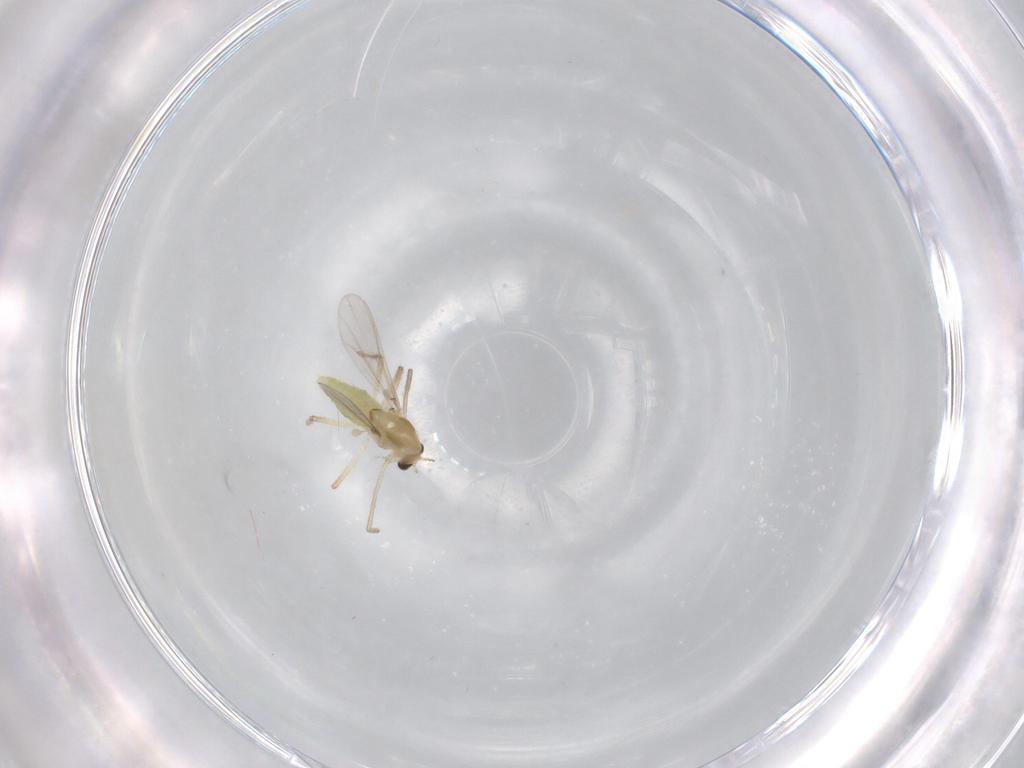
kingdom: Animalia
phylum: Arthropoda
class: Insecta
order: Diptera
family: Chironomidae
